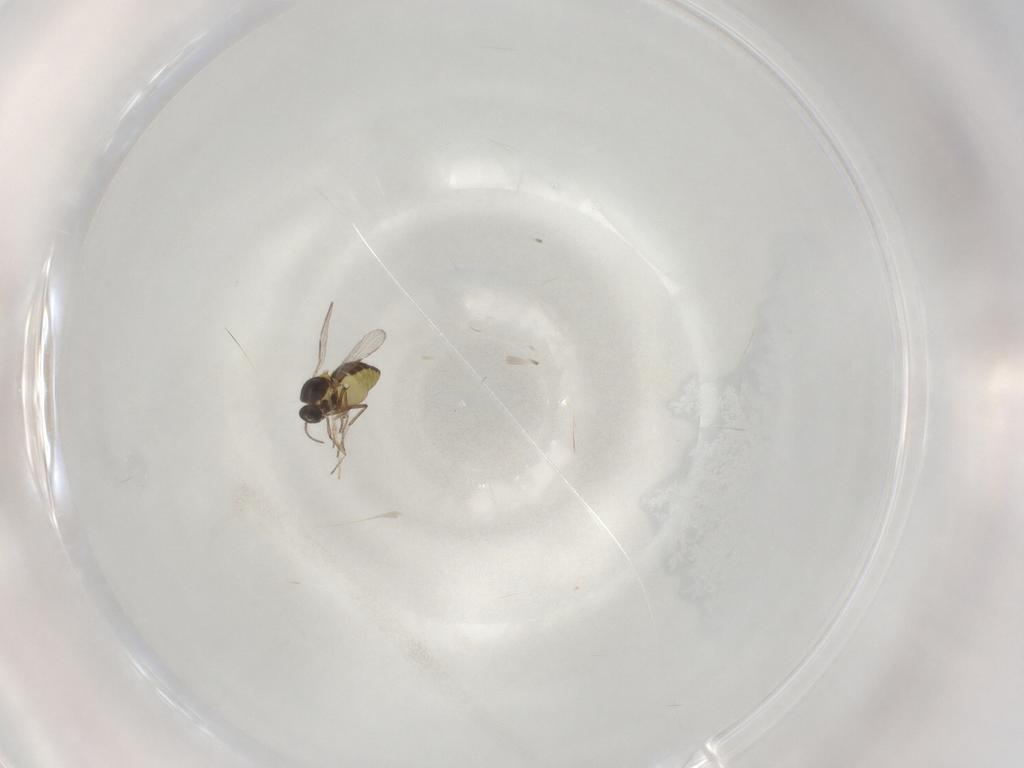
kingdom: Animalia
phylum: Arthropoda
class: Insecta
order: Diptera
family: Ceratopogonidae
